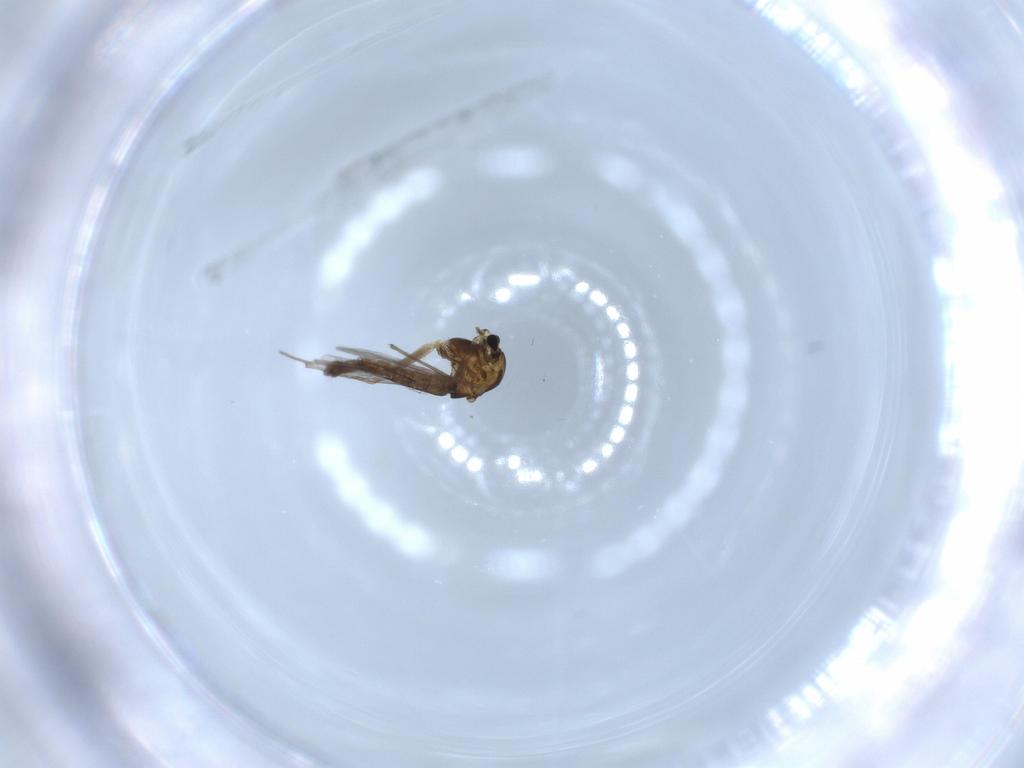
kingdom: Animalia
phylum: Arthropoda
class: Insecta
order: Diptera
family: Chironomidae
